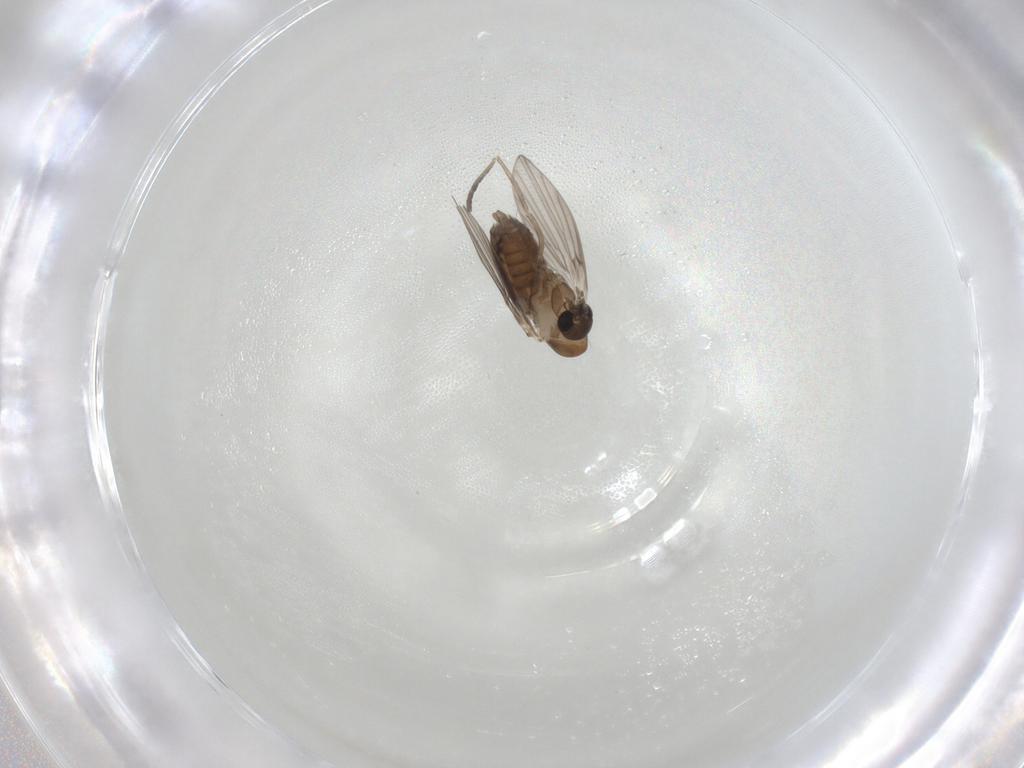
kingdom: Animalia
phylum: Arthropoda
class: Insecta
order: Diptera
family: Psychodidae
